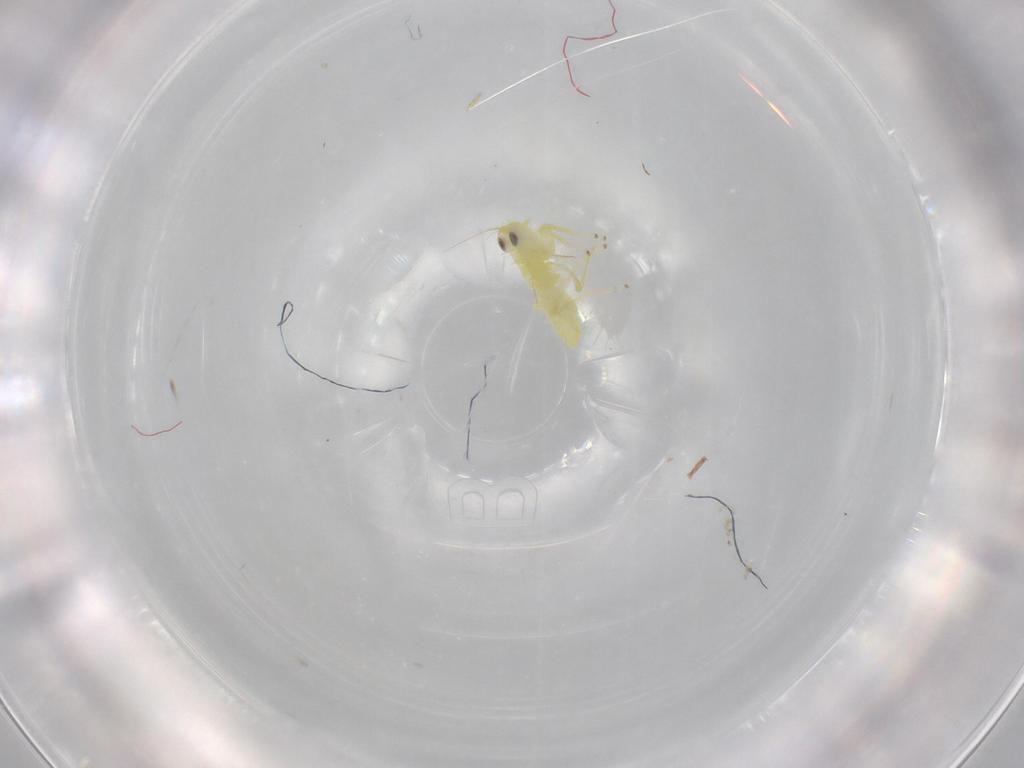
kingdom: Animalia
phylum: Arthropoda
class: Insecta
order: Hemiptera
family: Cicadellidae
